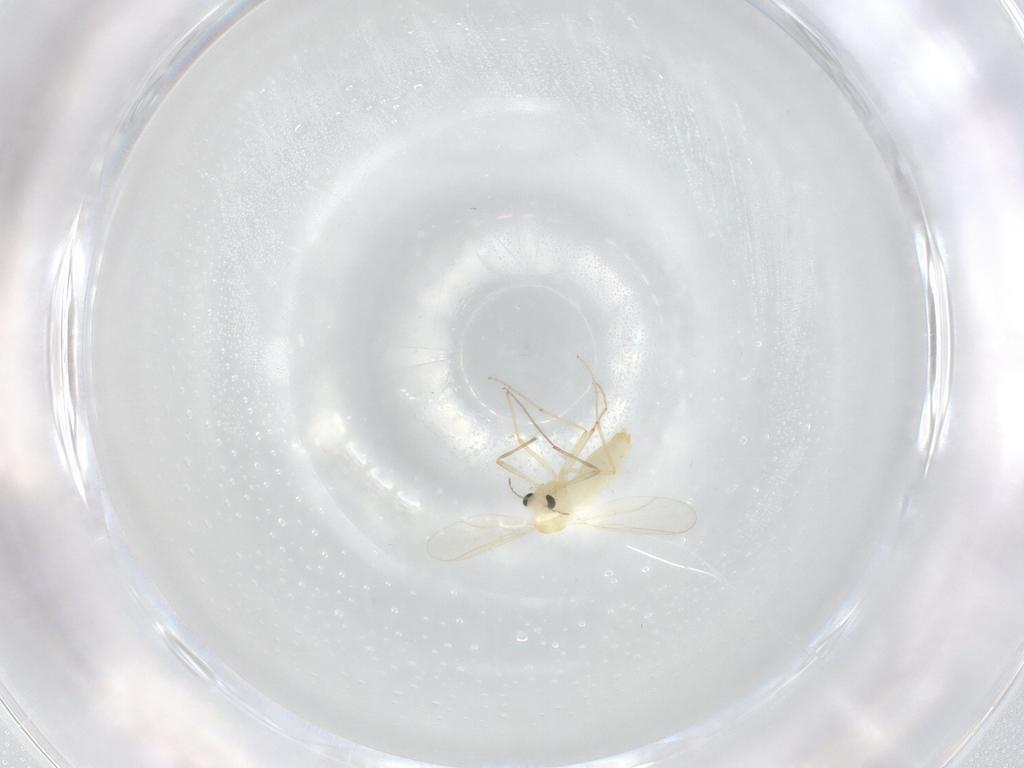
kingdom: Animalia
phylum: Arthropoda
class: Insecta
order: Diptera
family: Chironomidae
